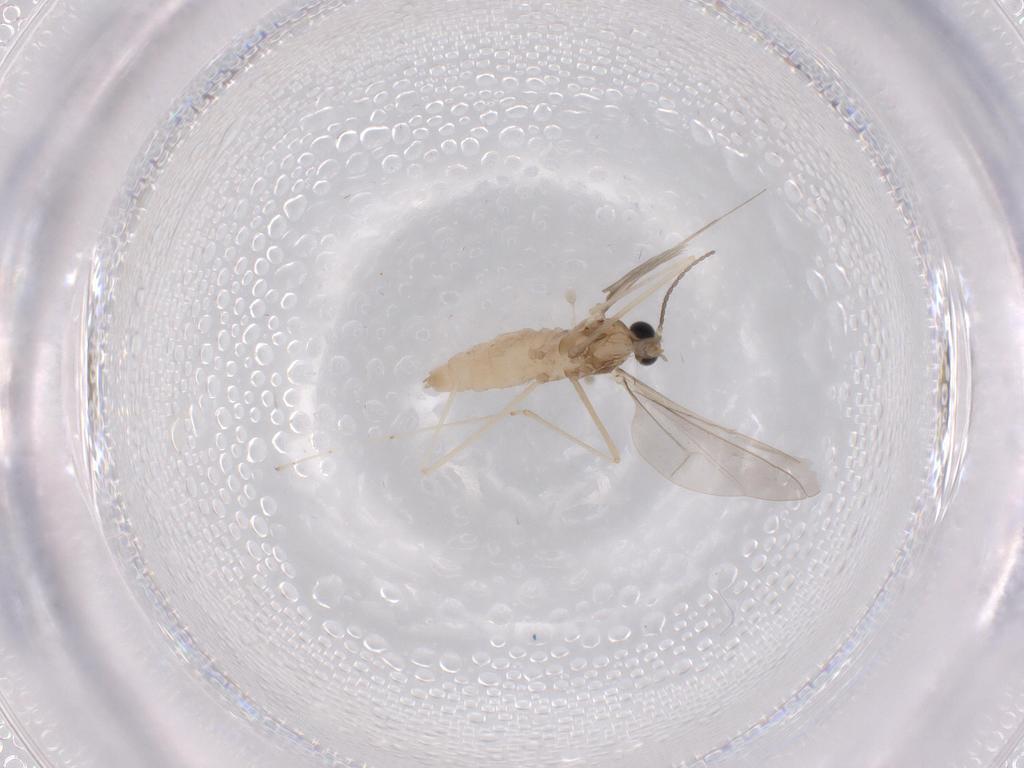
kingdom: Animalia
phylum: Arthropoda
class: Insecta
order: Diptera
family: Cecidomyiidae
